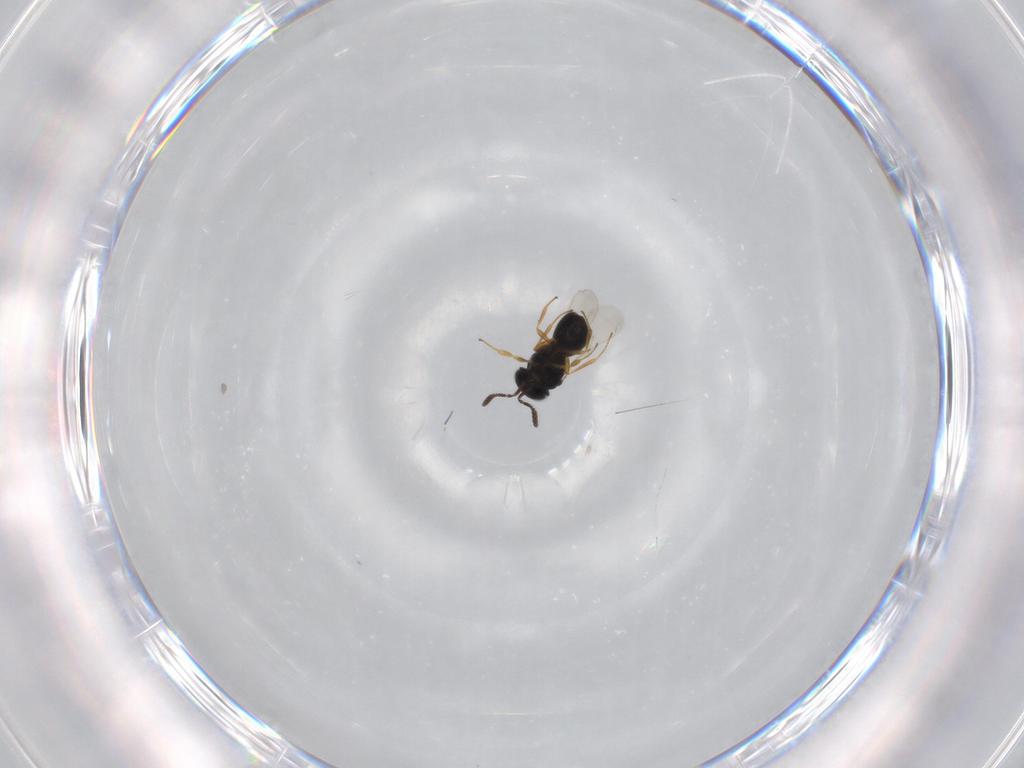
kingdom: Animalia
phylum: Arthropoda
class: Insecta
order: Hymenoptera
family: Scelionidae
